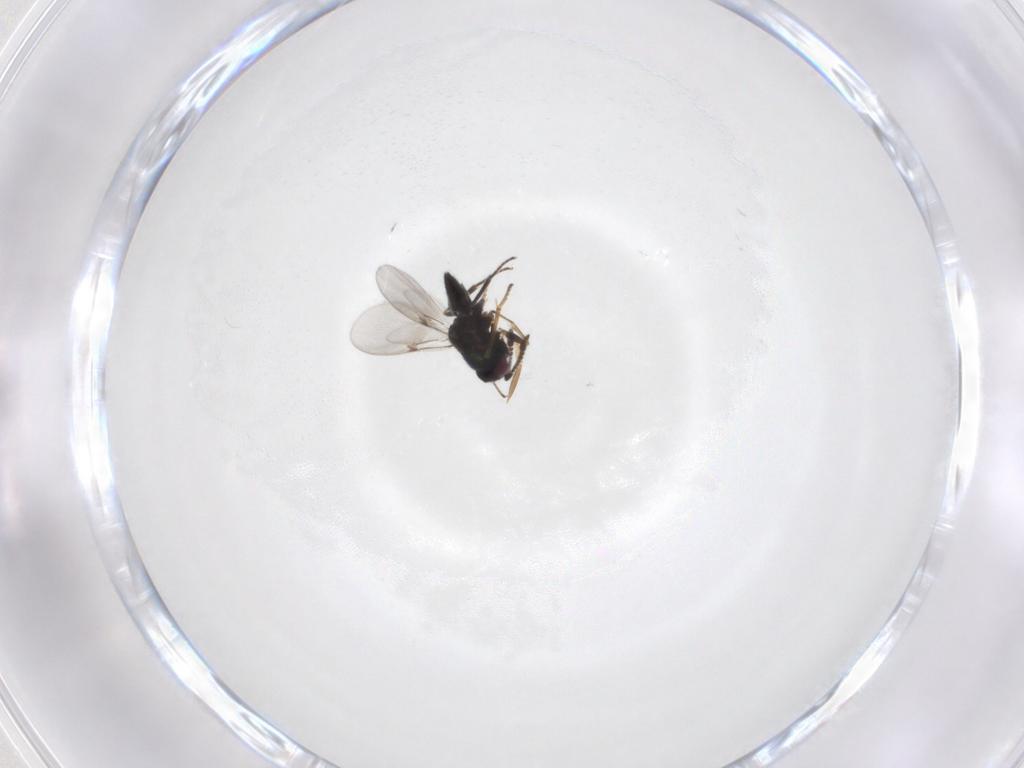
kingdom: Animalia
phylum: Arthropoda
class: Insecta
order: Hymenoptera
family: Encyrtidae
